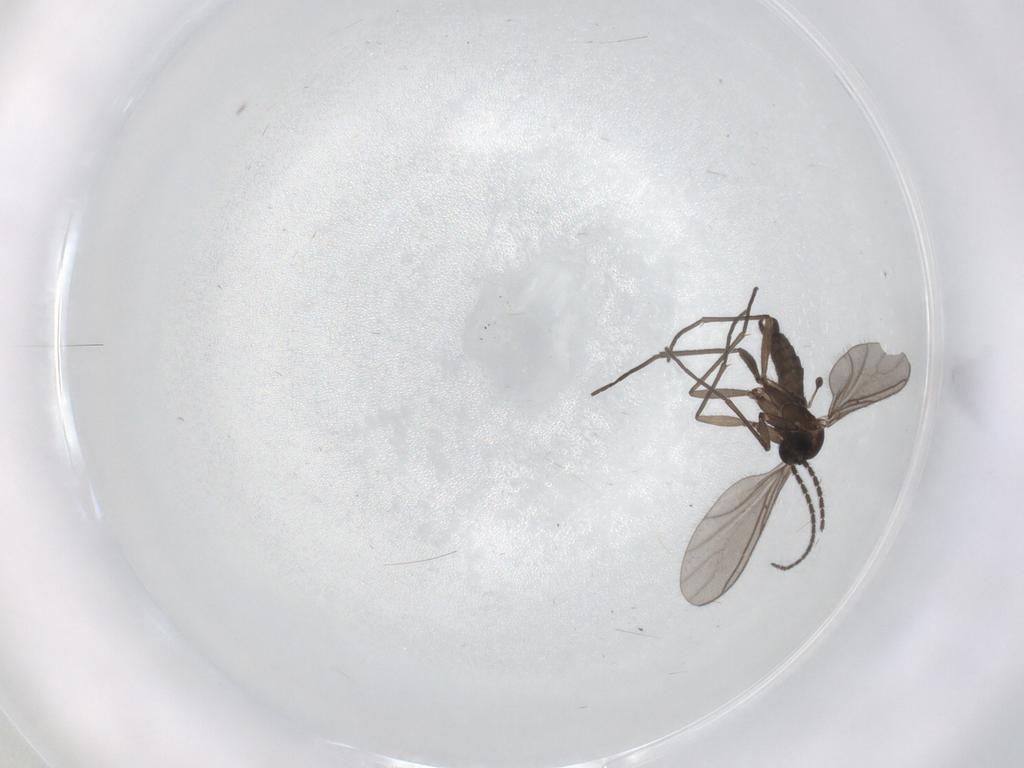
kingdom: Animalia
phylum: Arthropoda
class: Insecta
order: Diptera
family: Sciaridae
